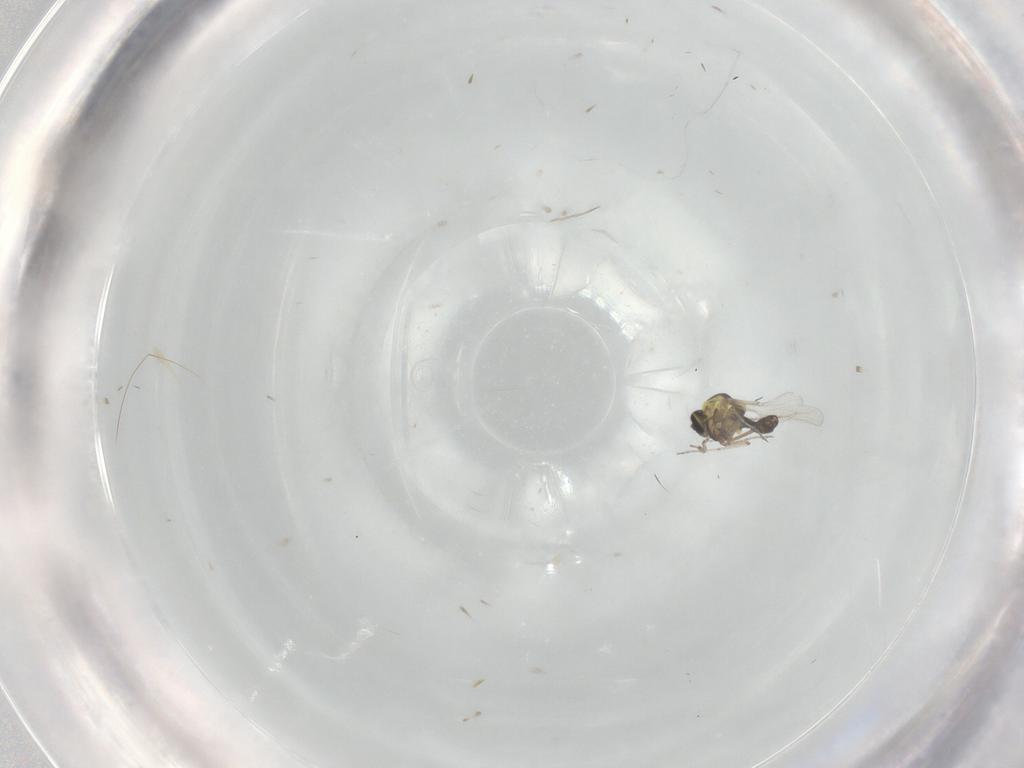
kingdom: Animalia
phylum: Arthropoda
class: Insecta
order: Diptera
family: Ceratopogonidae
